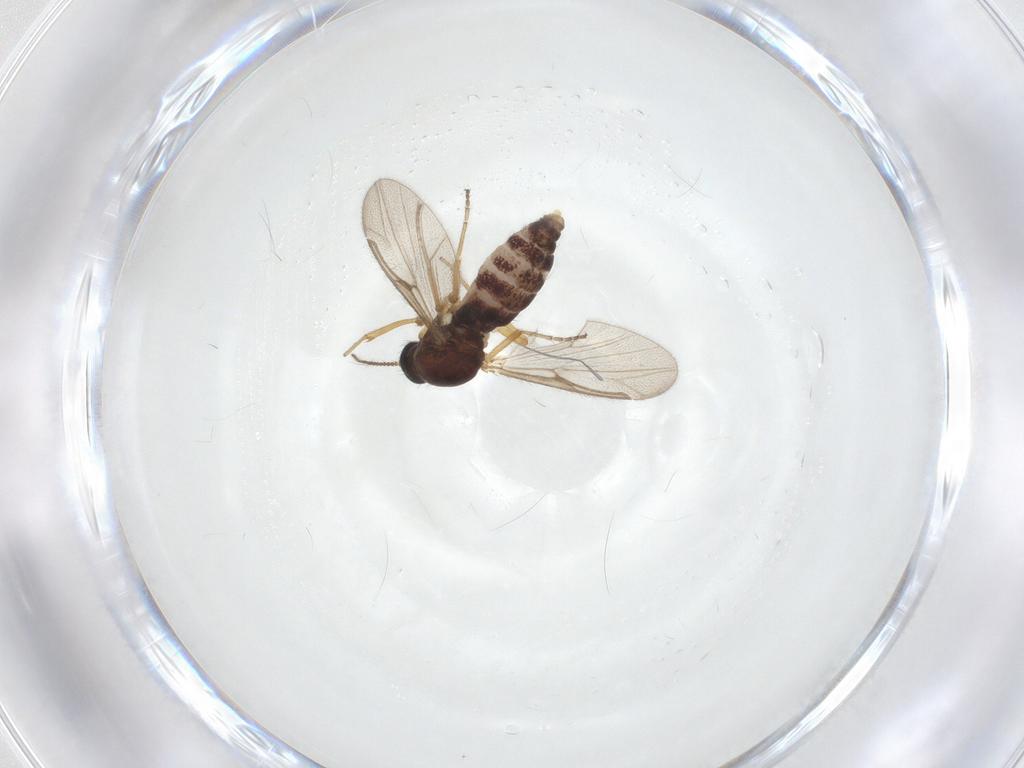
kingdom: Animalia
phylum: Arthropoda
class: Insecta
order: Diptera
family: Ceratopogonidae
